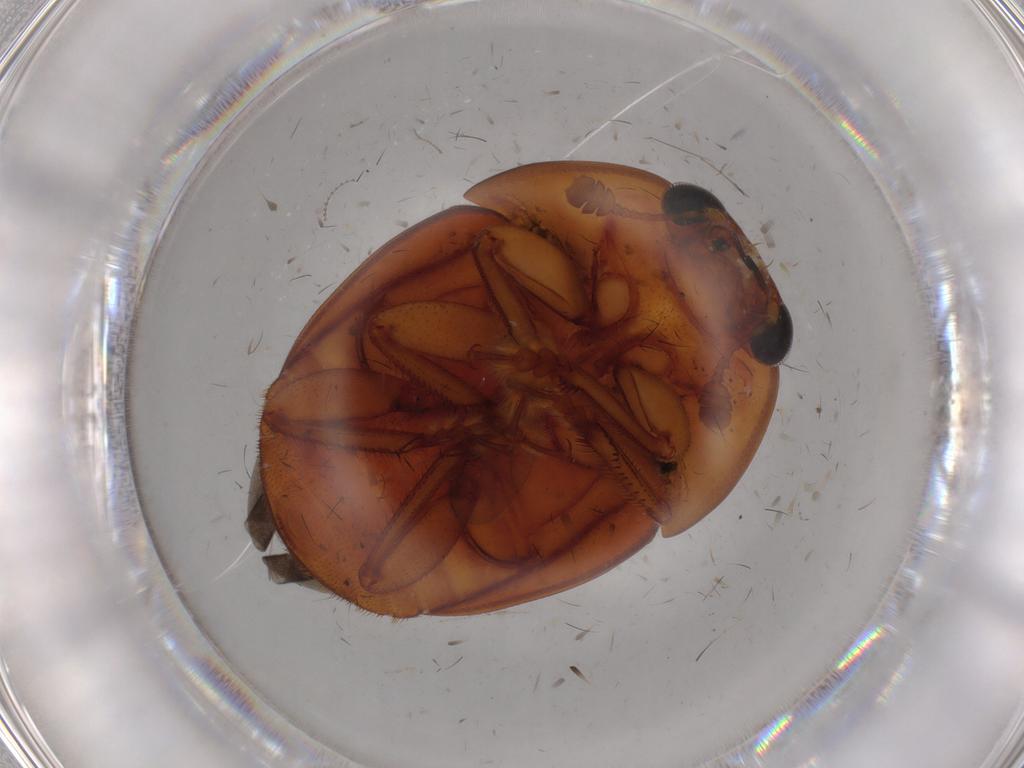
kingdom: Animalia
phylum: Arthropoda
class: Insecta
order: Coleoptera
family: Nitidulidae
